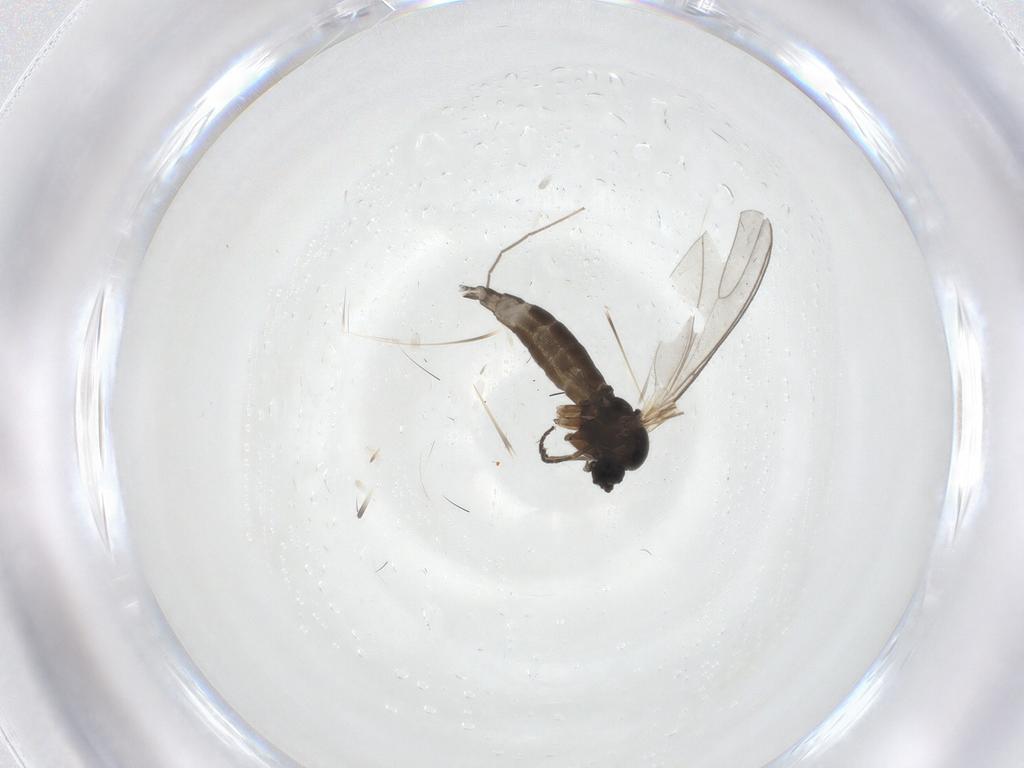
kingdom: Animalia
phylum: Arthropoda
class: Insecta
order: Diptera
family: Sciaridae
